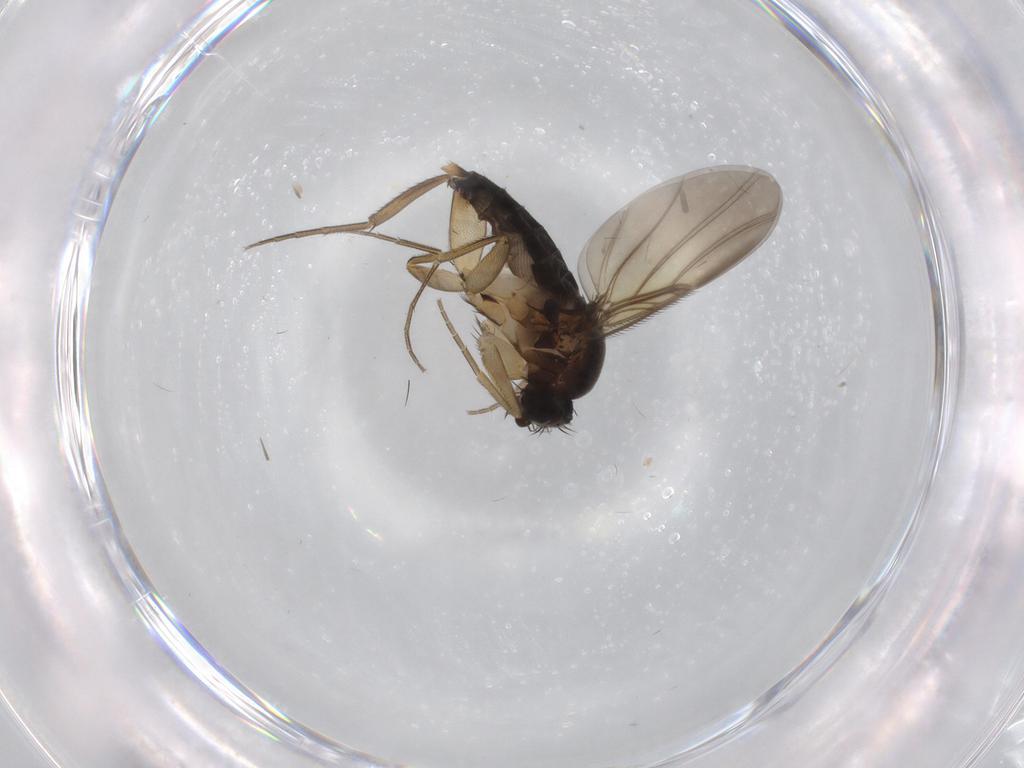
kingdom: Animalia
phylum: Arthropoda
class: Insecta
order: Diptera
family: Phoridae
